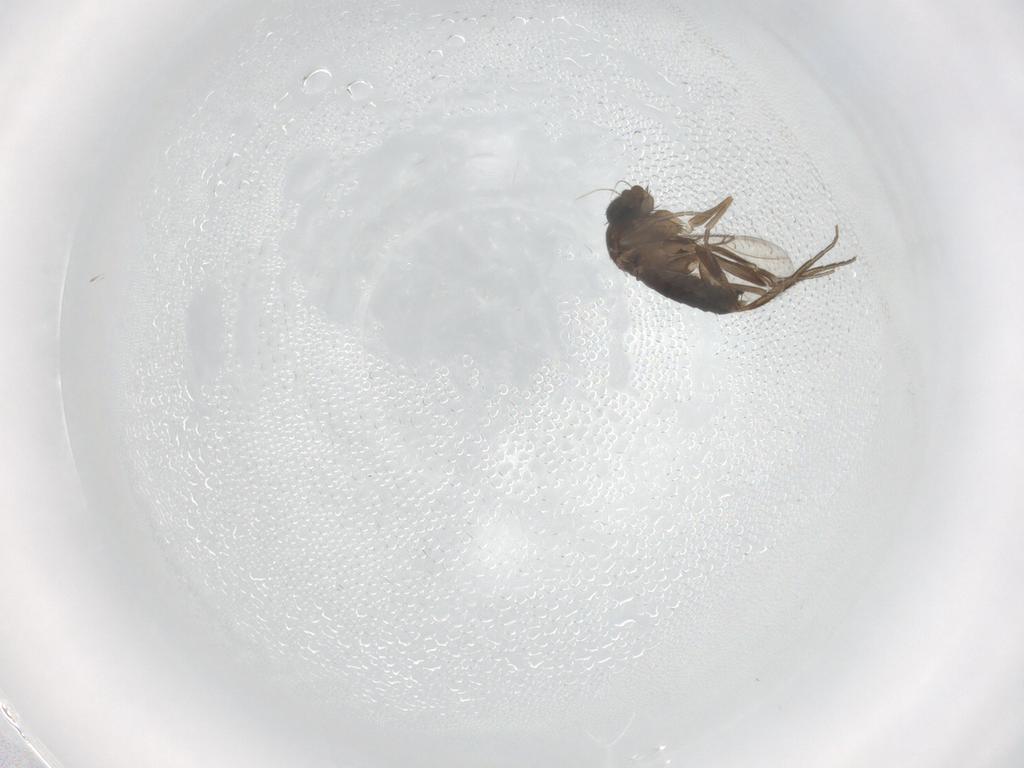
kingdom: Animalia
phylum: Arthropoda
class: Insecta
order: Diptera
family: Phoridae
